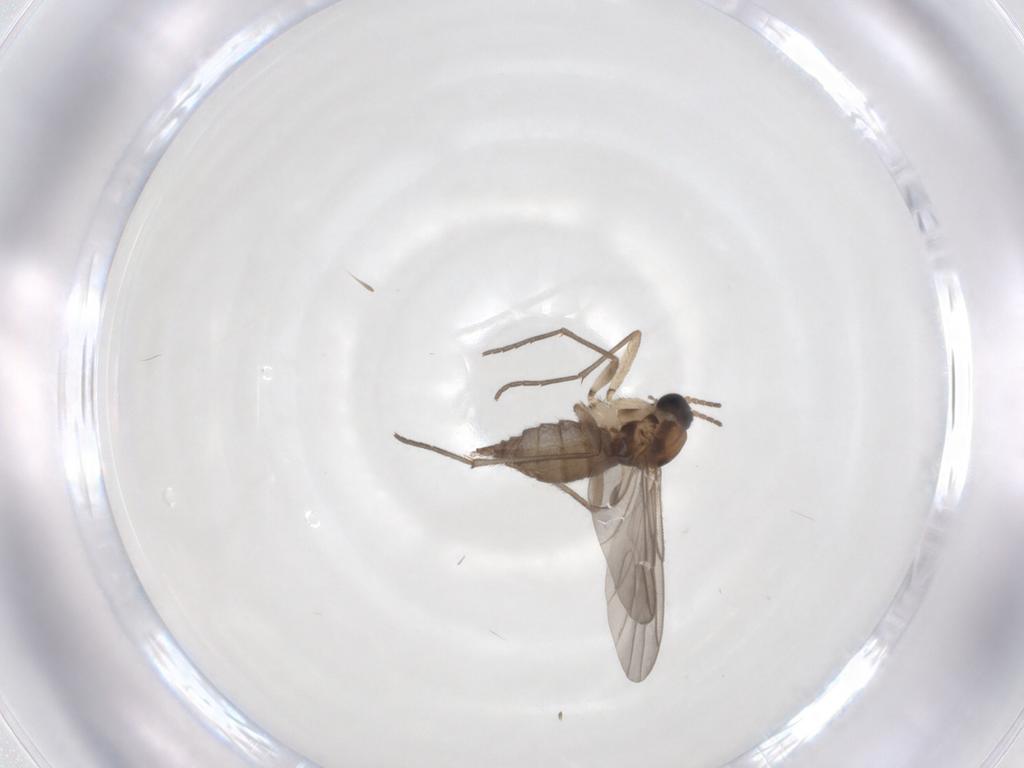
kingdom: Animalia
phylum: Arthropoda
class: Insecta
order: Diptera
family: Sciaridae
